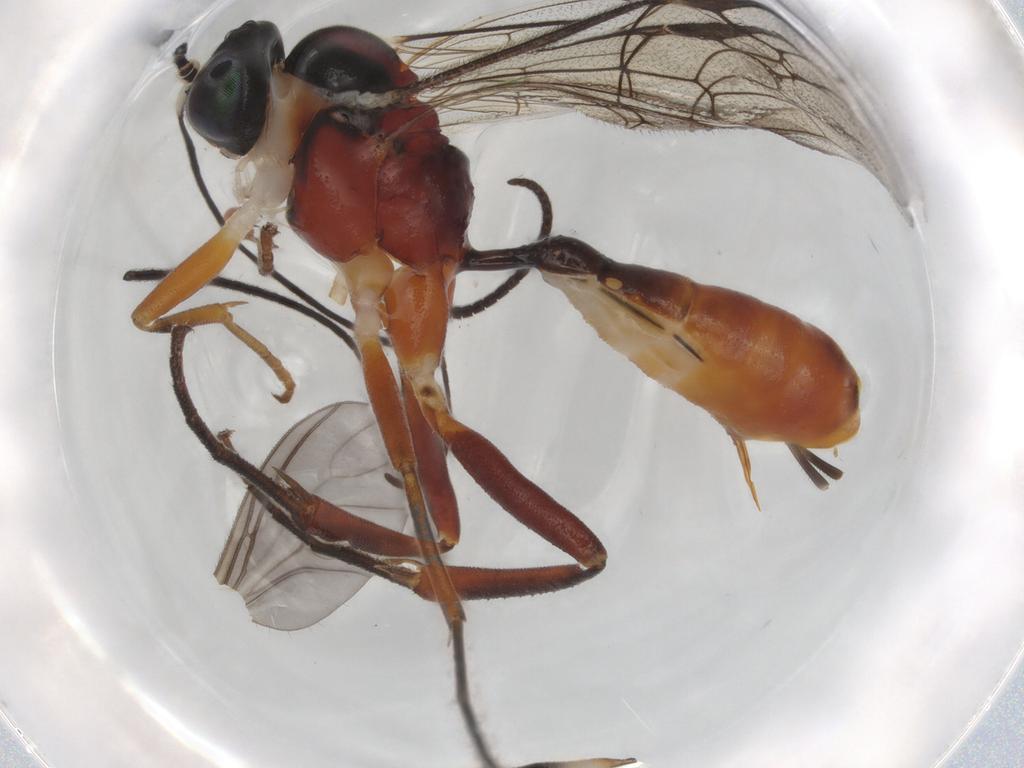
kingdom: Animalia
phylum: Arthropoda
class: Insecta
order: Hymenoptera
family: Ichneumonidae
